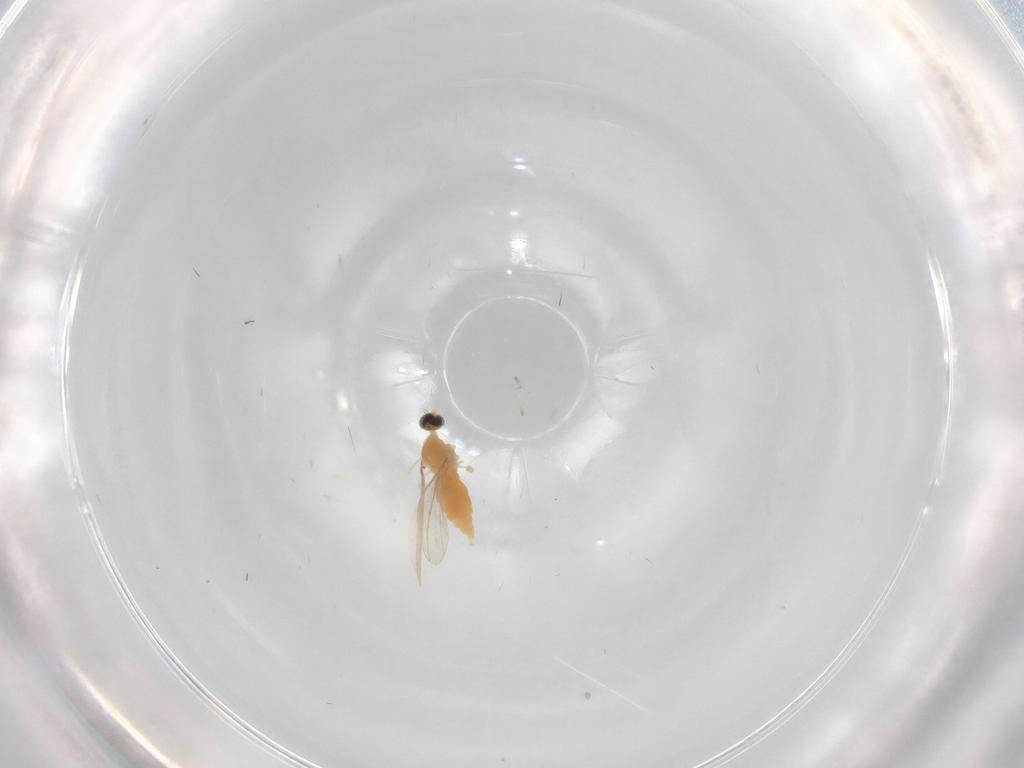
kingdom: Animalia
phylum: Arthropoda
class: Insecta
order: Diptera
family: Cecidomyiidae
